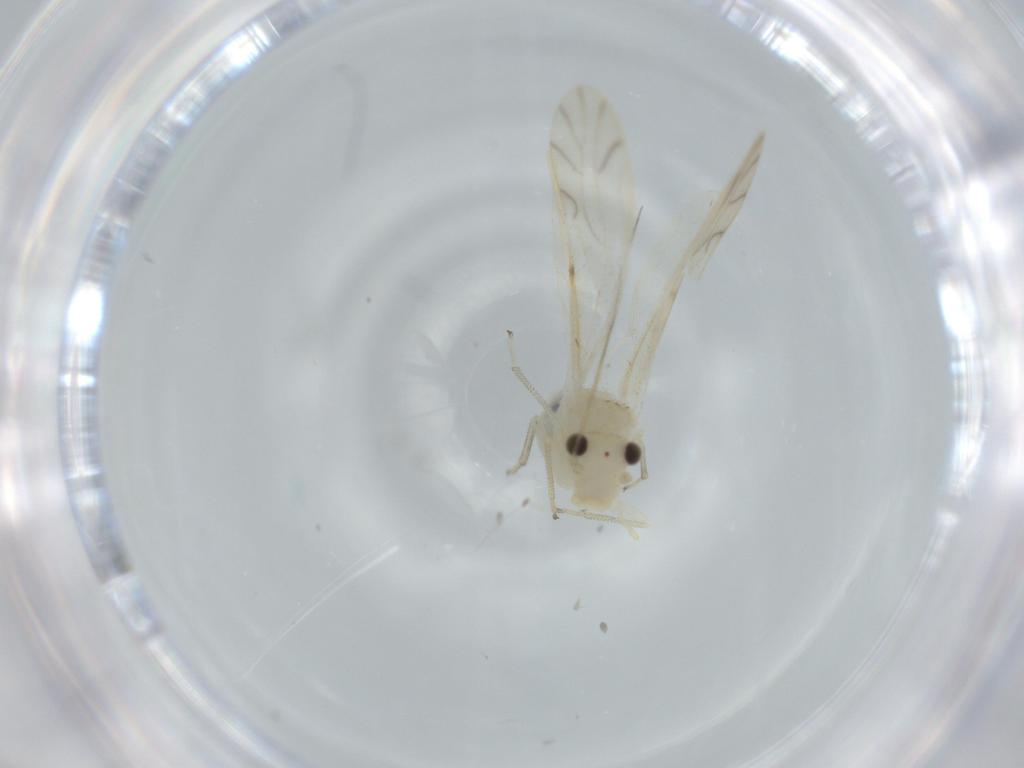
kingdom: Animalia
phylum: Arthropoda
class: Insecta
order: Psocodea
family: Caeciliusidae
